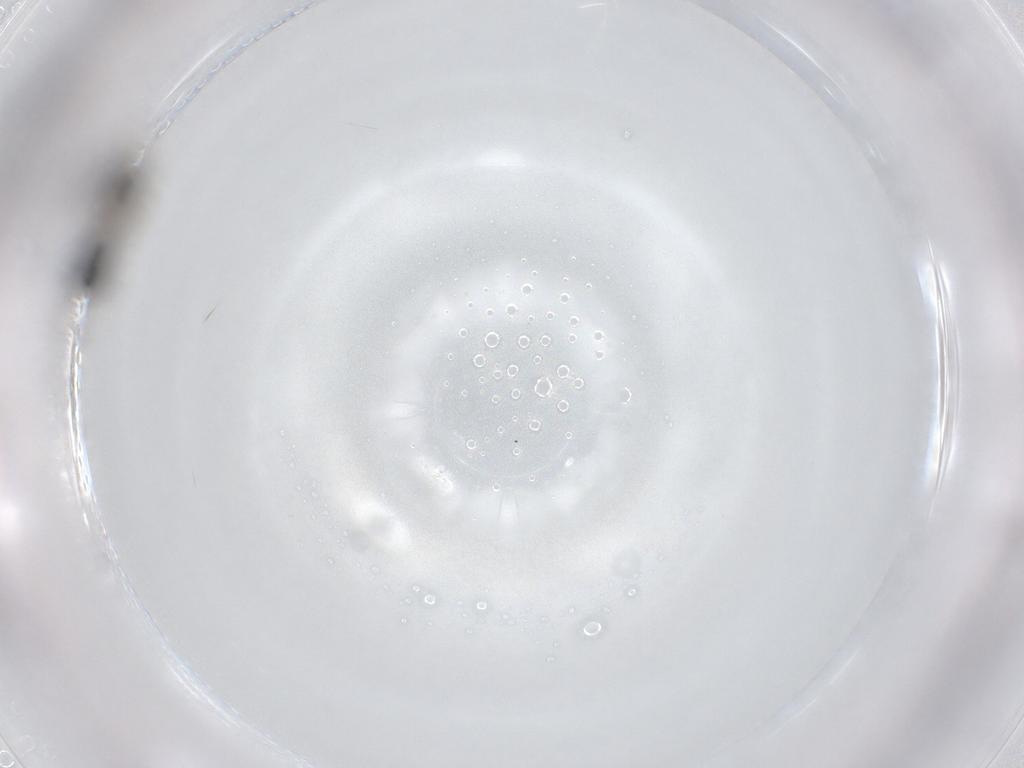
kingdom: Animalia
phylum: Arthropoda
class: Insecta
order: Hymenoptera
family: Mymaridae
